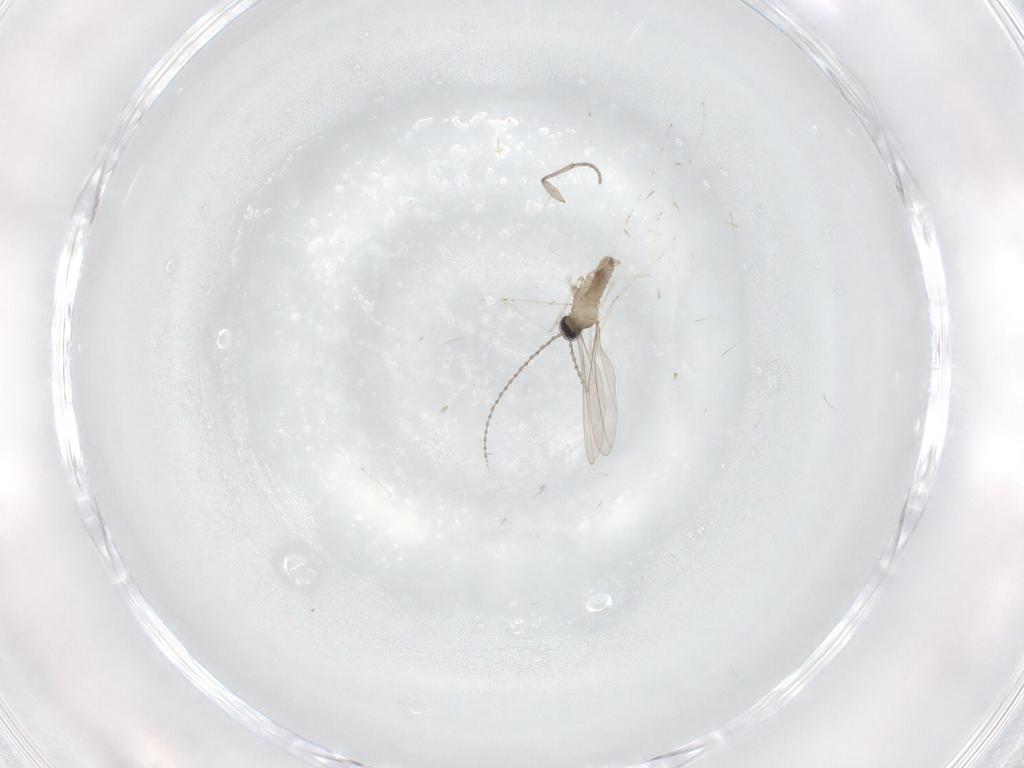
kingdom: Animalia
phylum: Arthropoda
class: Insecta
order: Diptera
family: Sciaridae
